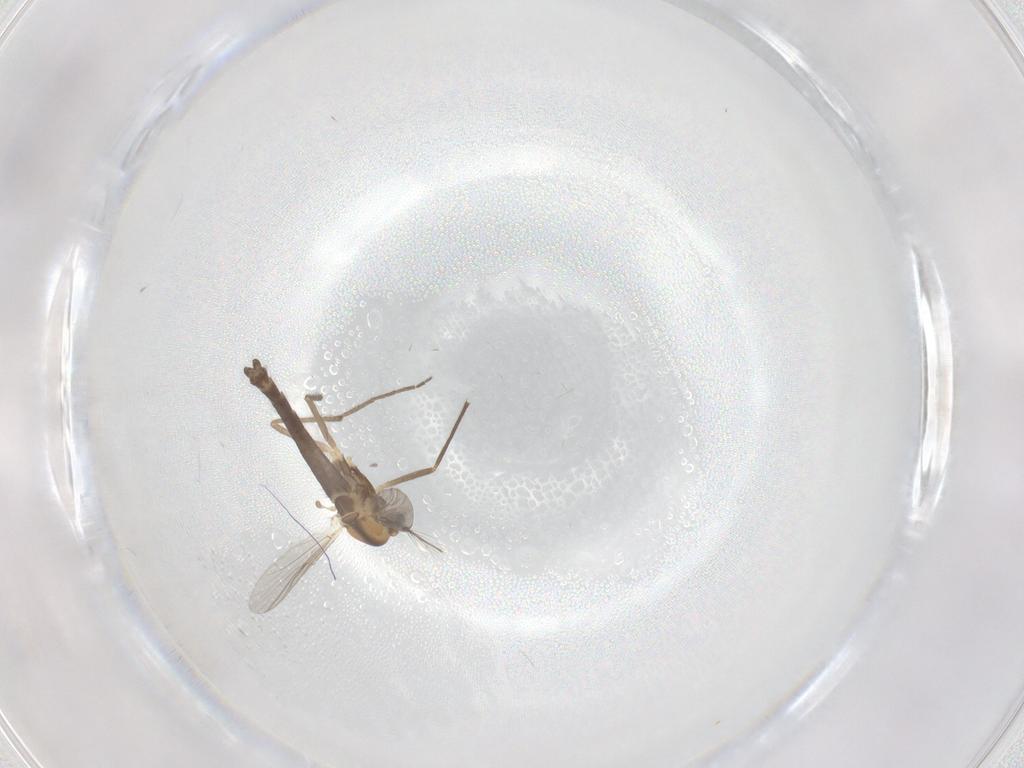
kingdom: Animalia
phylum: Arthropoda
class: Insecta
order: Diptera
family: Chironomidae
